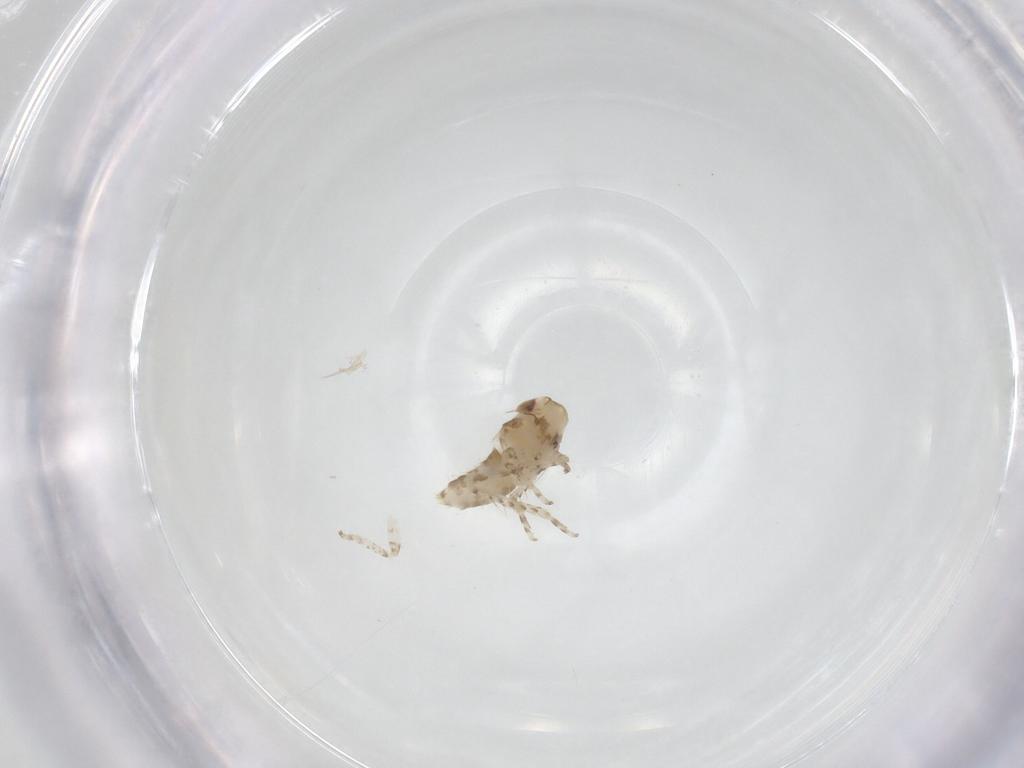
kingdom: Animalia
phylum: Arthropoda
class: Insecta
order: Hemiptera
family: Cicadellidae
